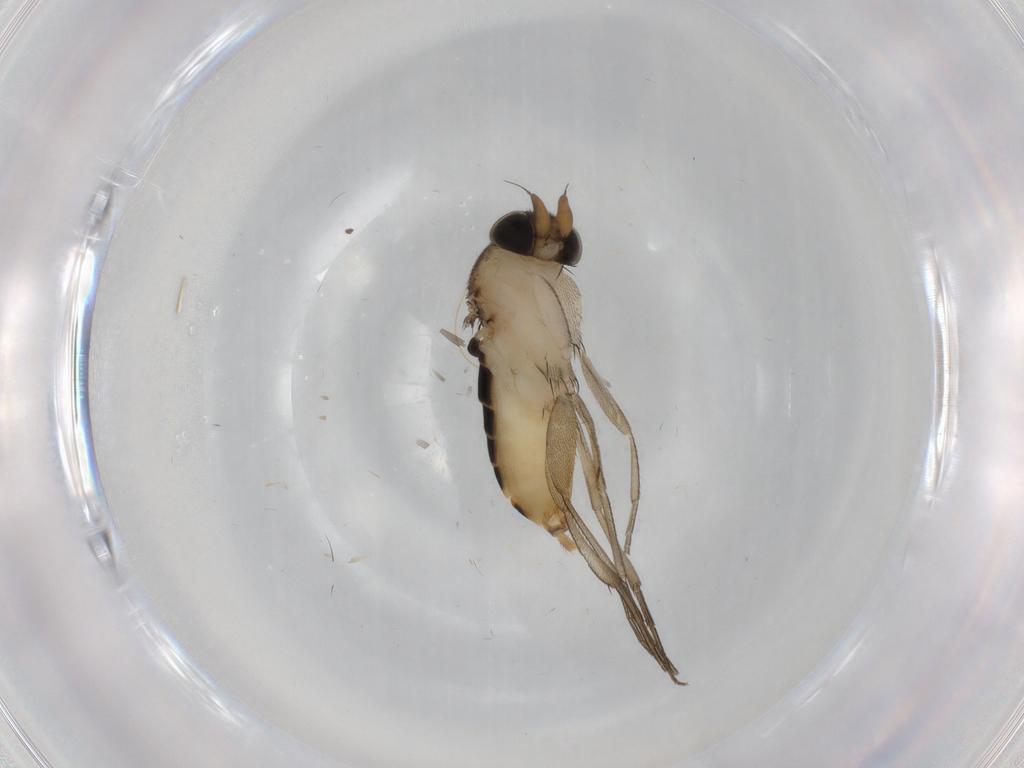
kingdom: Animalia
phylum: Arthropoda
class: Insecta
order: Diptera
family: Phoridae
